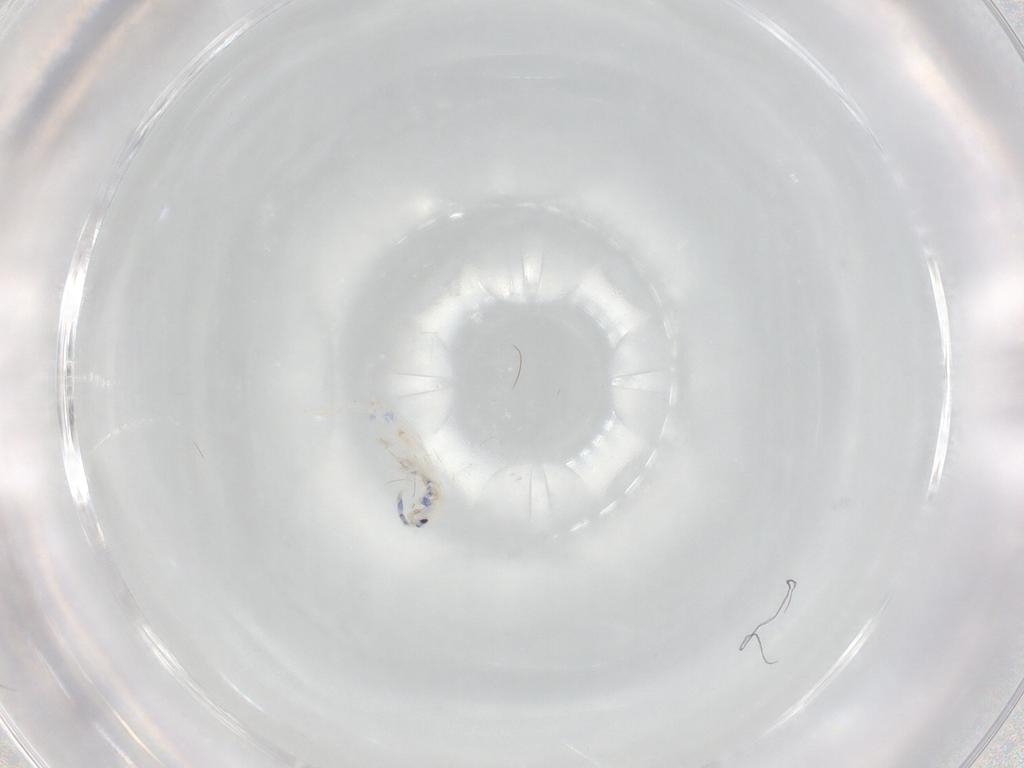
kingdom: Animalia
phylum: Arthropoda
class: Collembola
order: Entomobryomorpha
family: Entomobryidae
